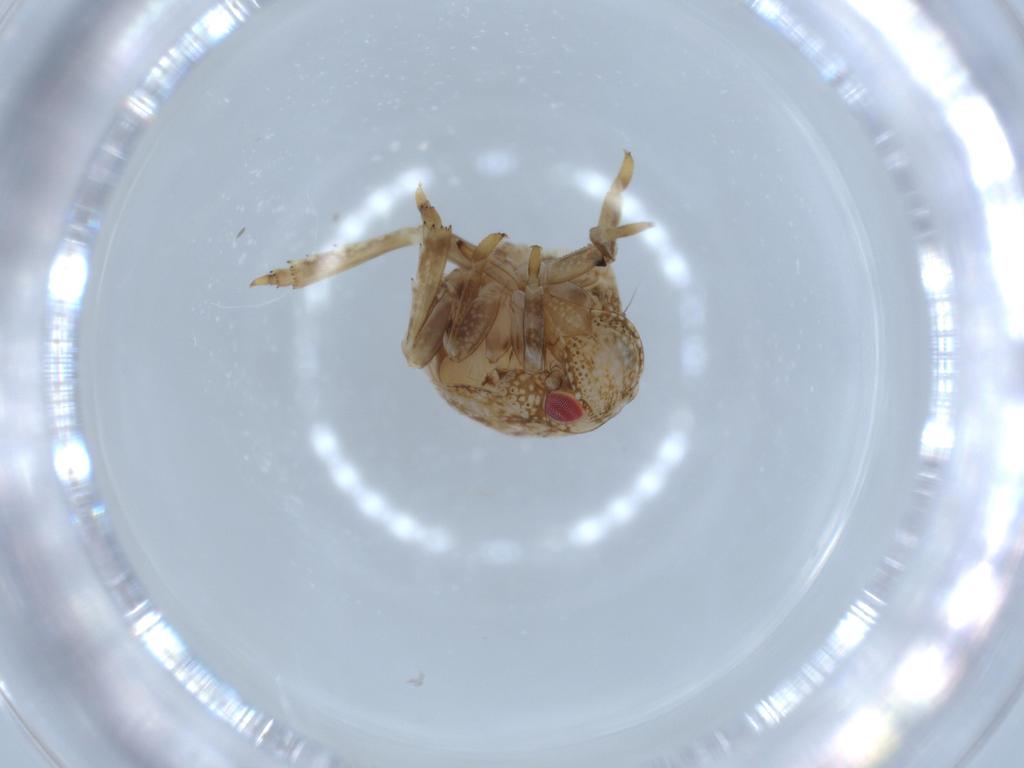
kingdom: Animalia
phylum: Arthropoda
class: Insecta
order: Hemiptera
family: Acanaloniidae
